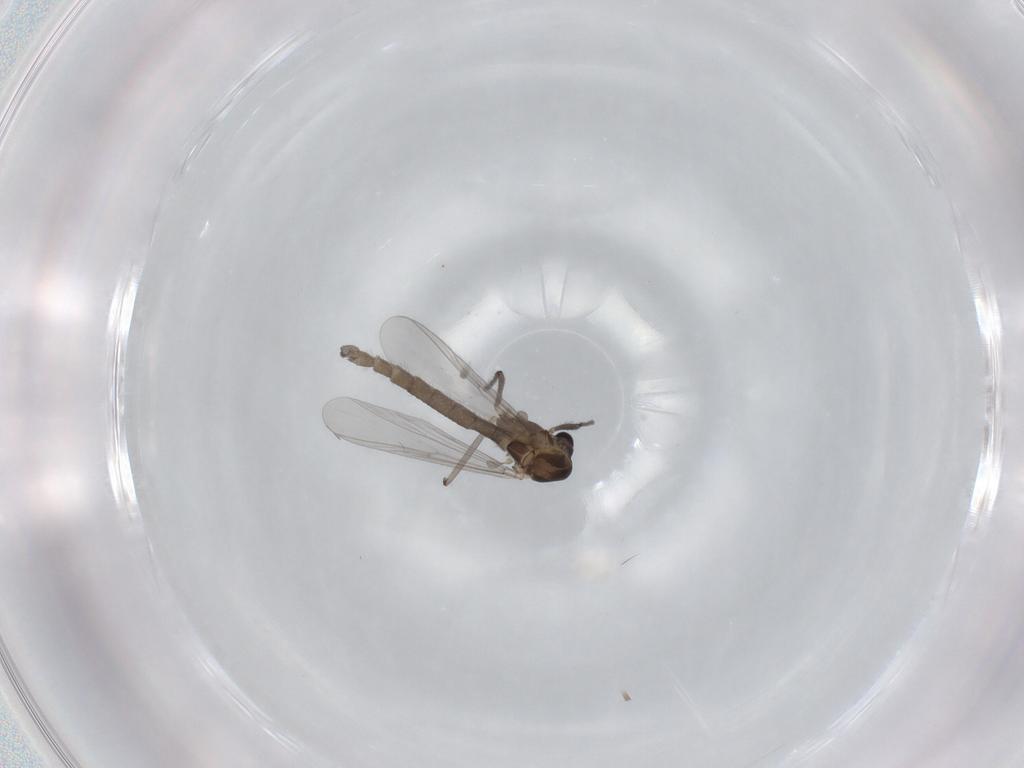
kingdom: Animalia
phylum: Arthropoda
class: Insecta
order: Diptera
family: Chironomidae
